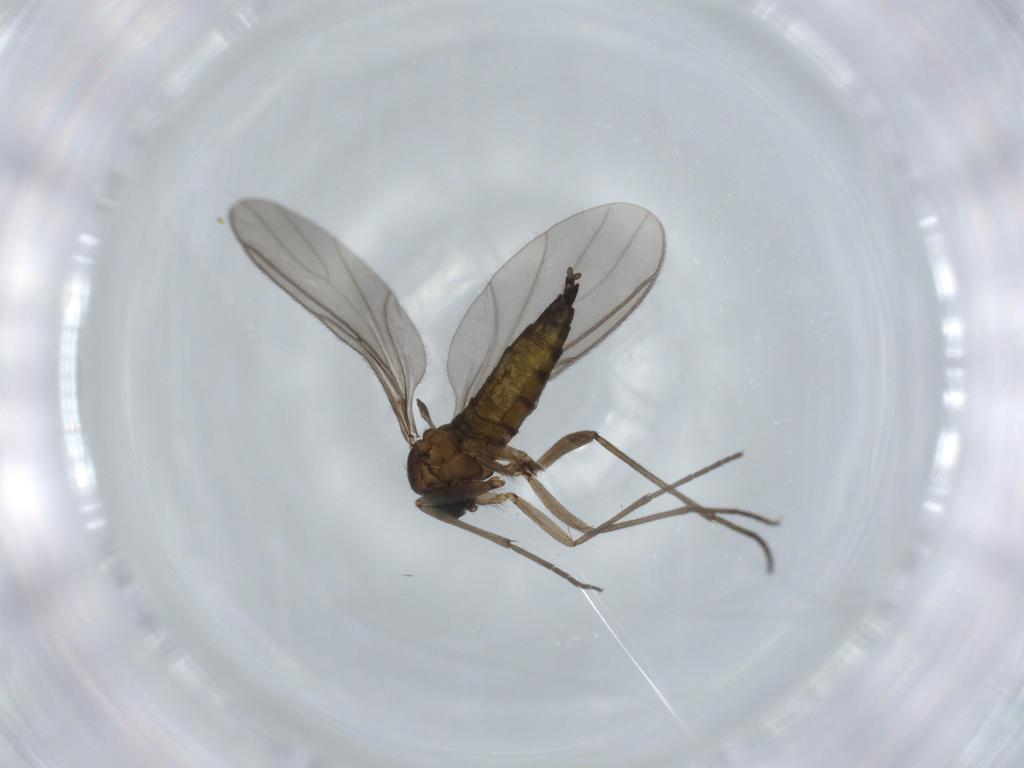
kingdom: Animalia
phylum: Arthropoda
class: Insecta
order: Diptera
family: Sciaridae
